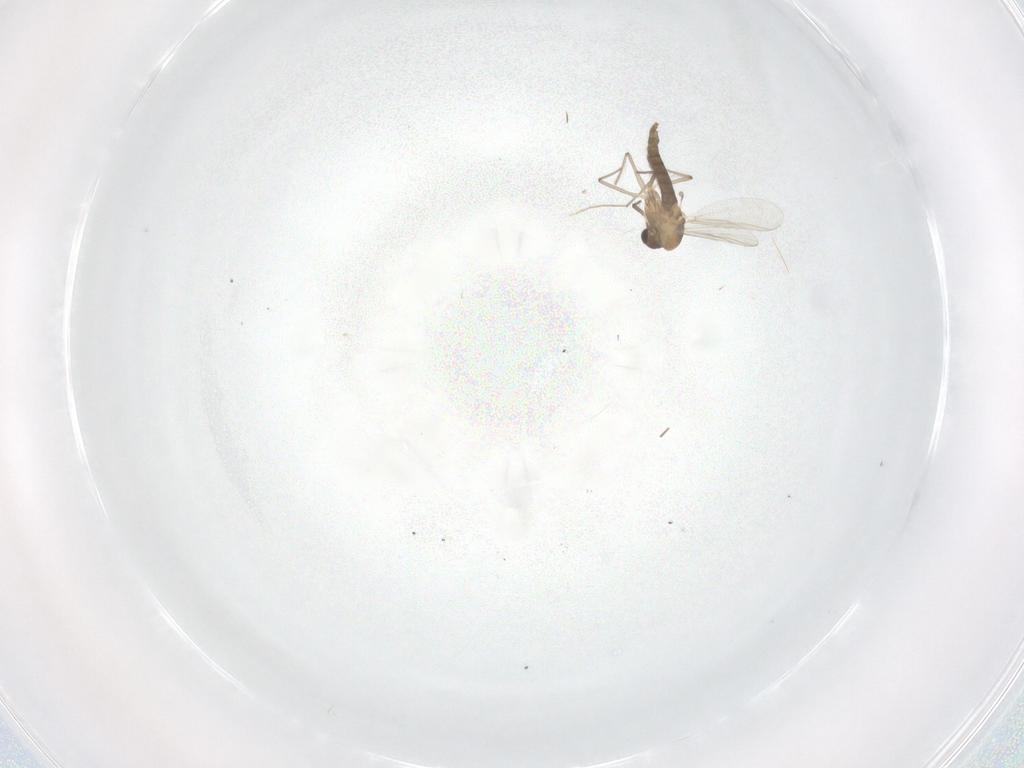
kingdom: Animalia
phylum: Arthropoda
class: Insecta
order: Diptera
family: Chironomidae
